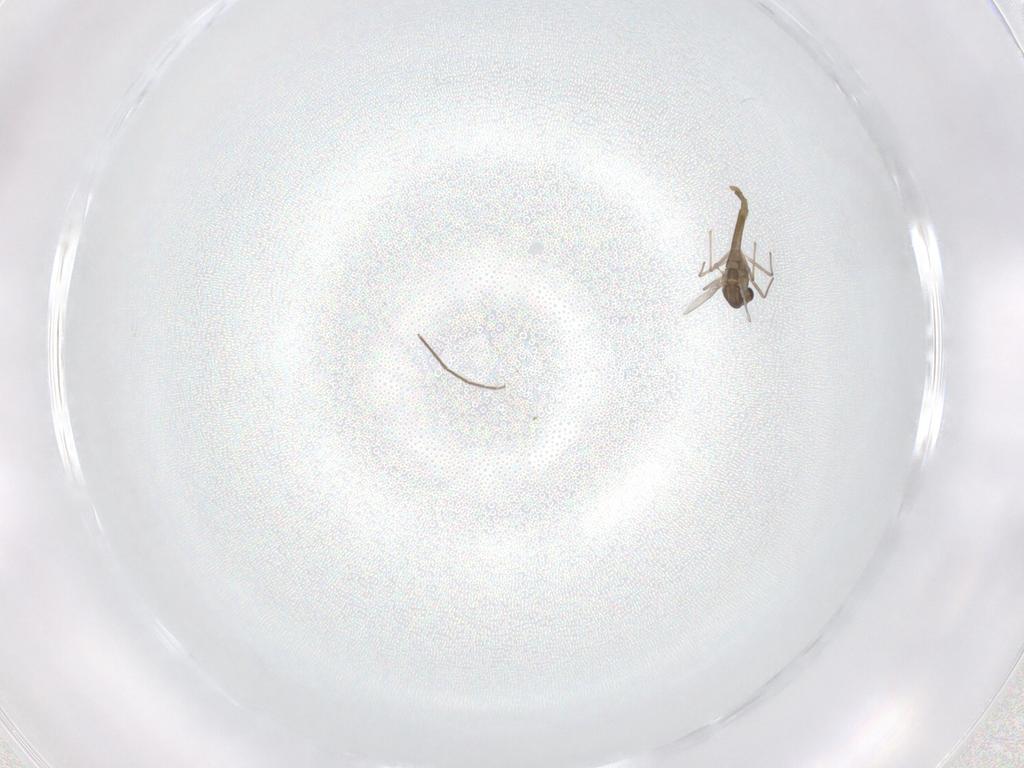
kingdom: Animalia
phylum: Arthropoda
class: Insecta
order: Diptera
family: Chironomidae
